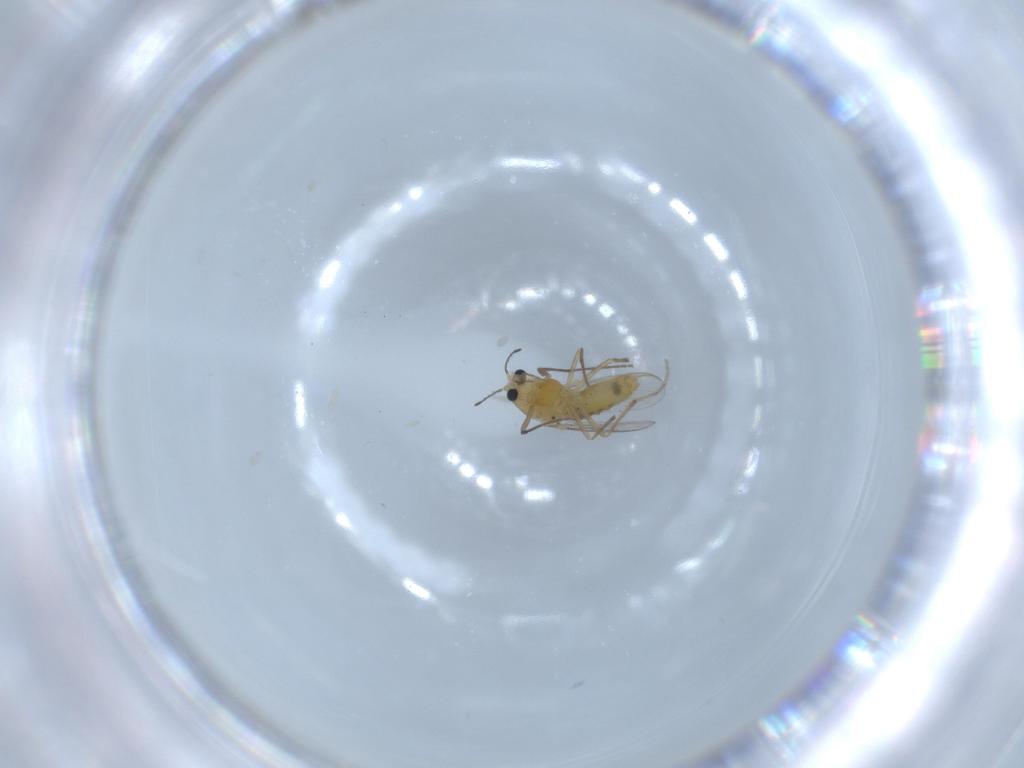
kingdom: Animalia
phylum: Arthropoda
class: Insecta
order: Diptera
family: Chironomidae
